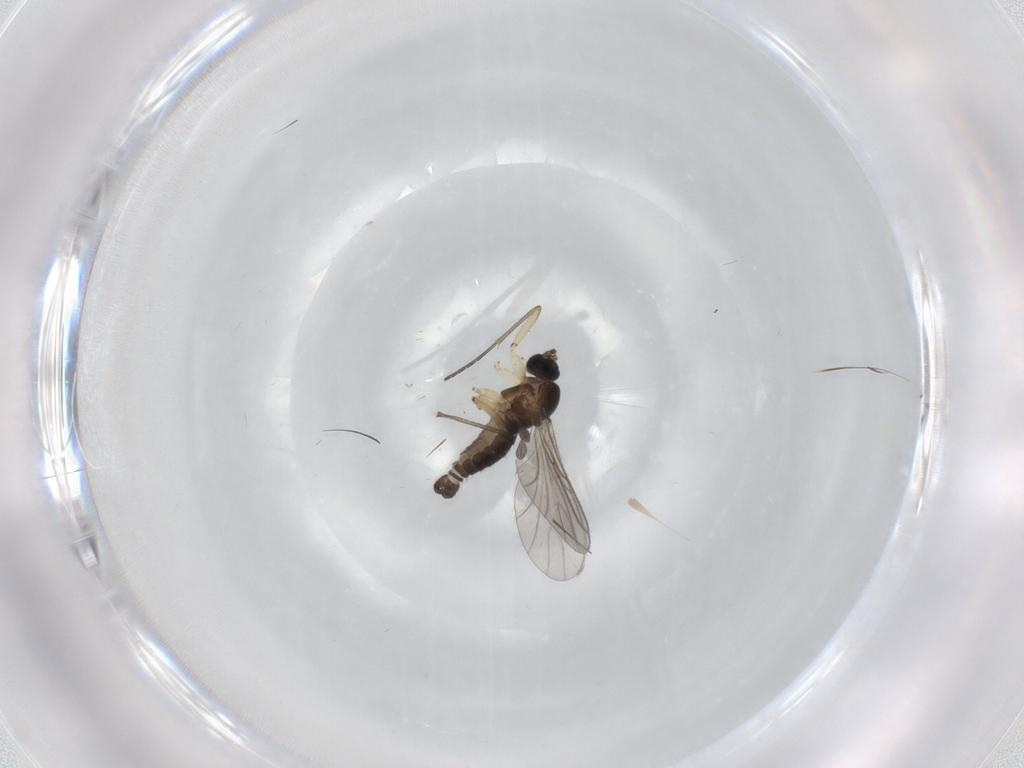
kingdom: Animalia
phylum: Arthropoda
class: Insecta
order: Diptera
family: Sciaridae
